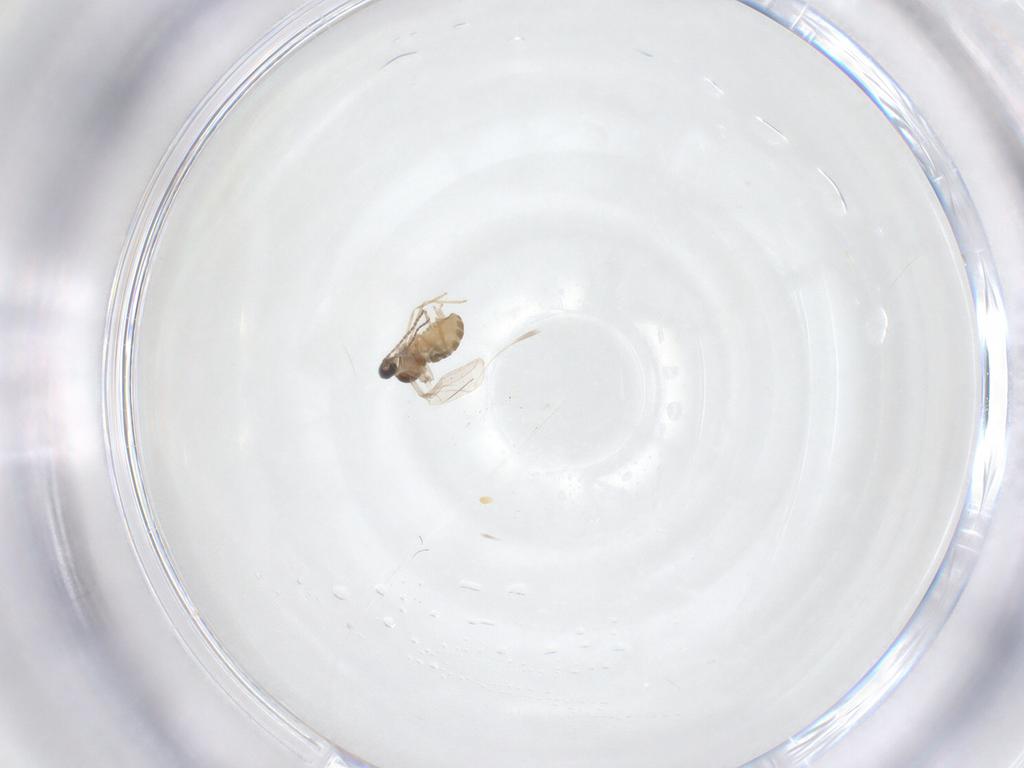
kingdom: Animalia
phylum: Arthropoda
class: Insecta
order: Diptera
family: Cecidomyiidae
